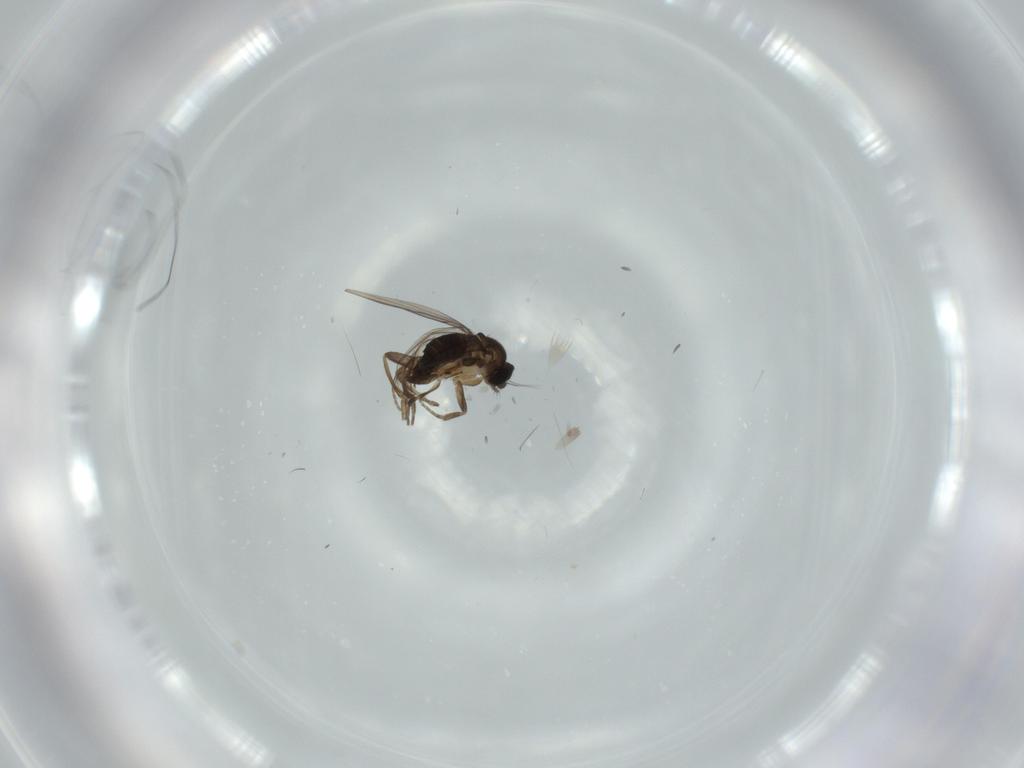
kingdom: Animalia
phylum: Arthropoda
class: Insecta
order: Diptera
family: Phoridae
